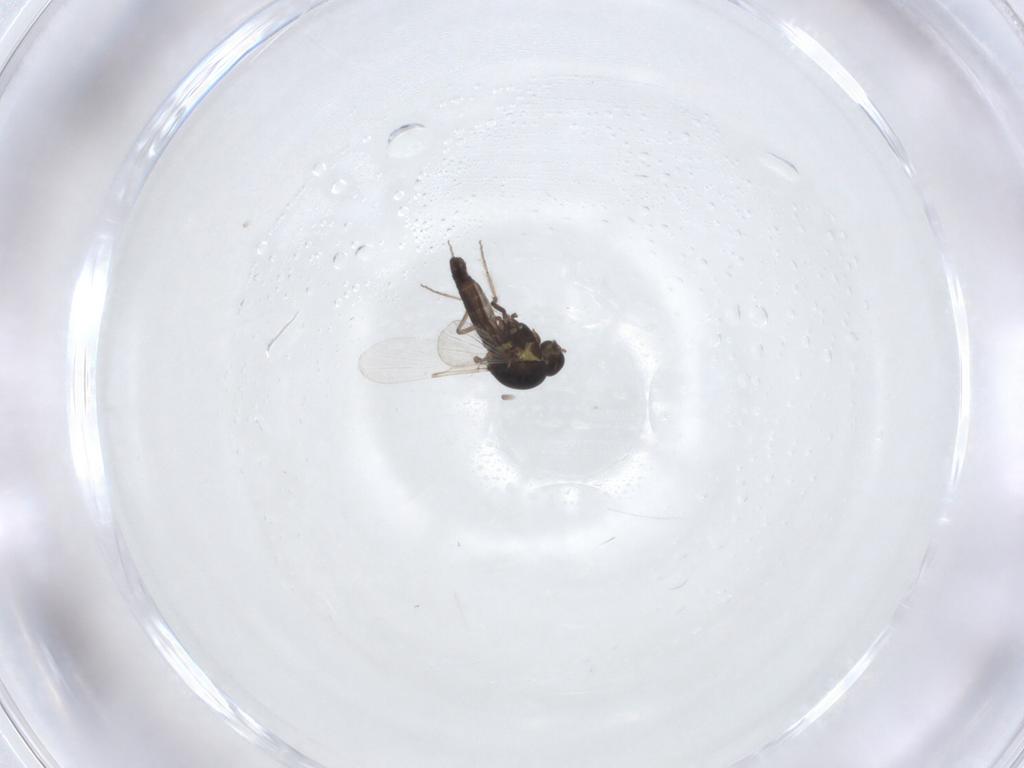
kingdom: Animalia
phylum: Arthropoda
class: Insecta
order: Diptera
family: Ceratopogonidae
